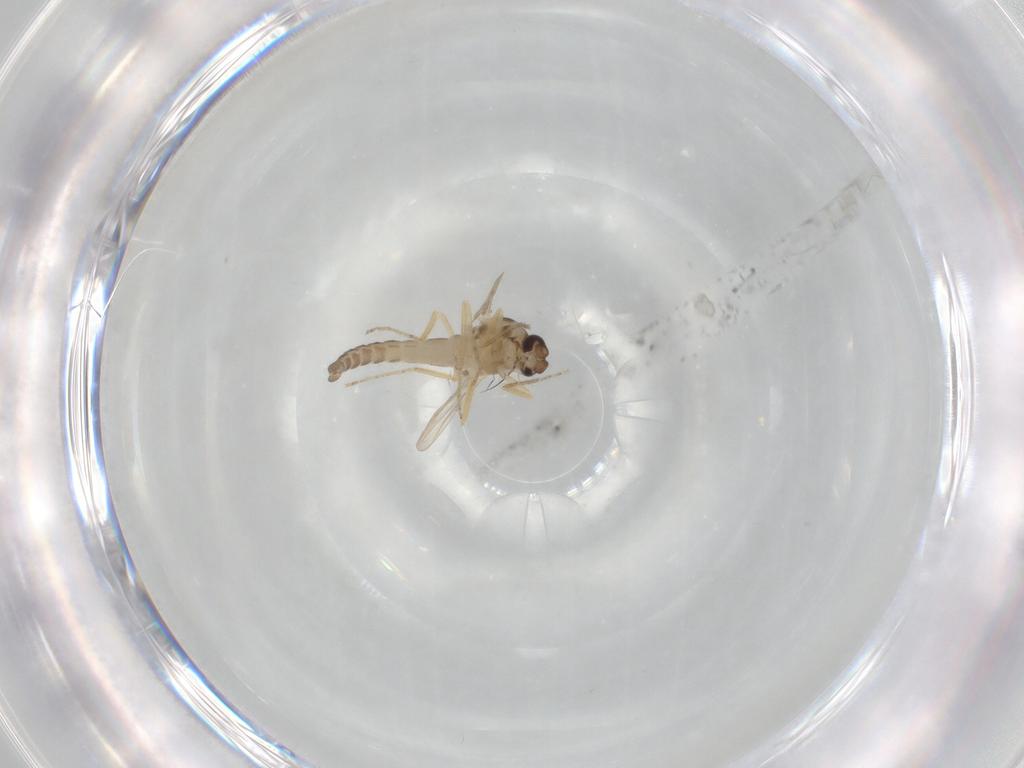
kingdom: Animalia
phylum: Arthropoda
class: Insecta
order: Diptera
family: Ceratopogonidae
